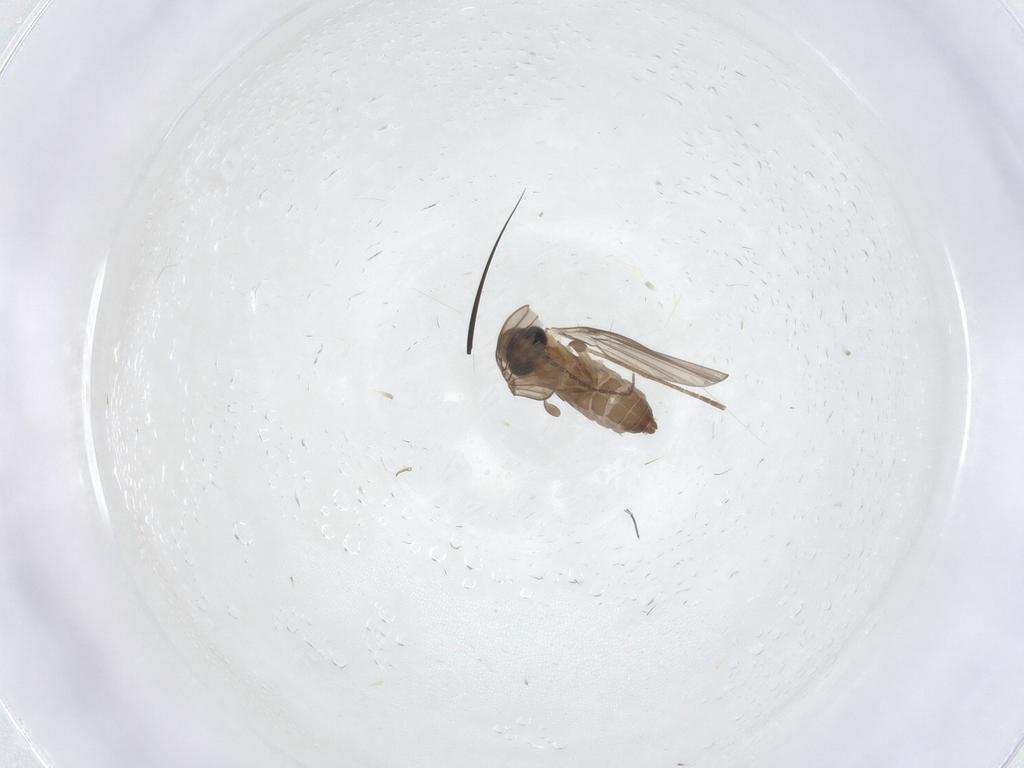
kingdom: Animalia
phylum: Arthropoda
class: Insecta
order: Diptera
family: Cecidomyiidae
